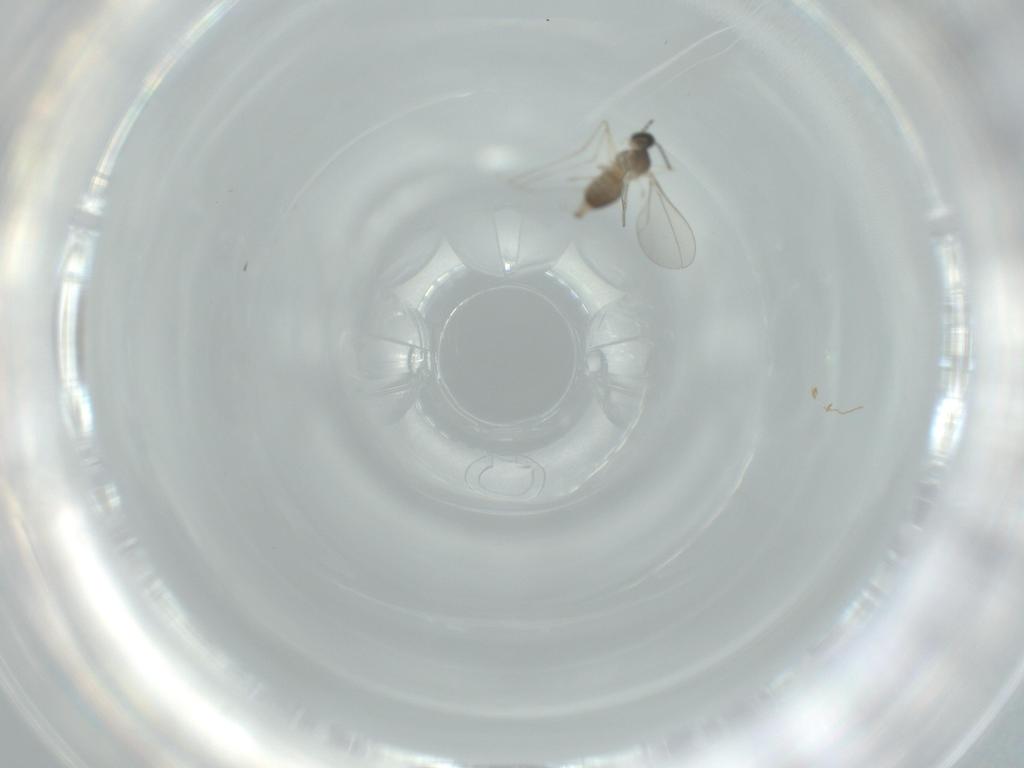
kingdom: Animalia
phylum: Arthropoda
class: Insecta
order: Diptera
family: Cecidomyiidae
